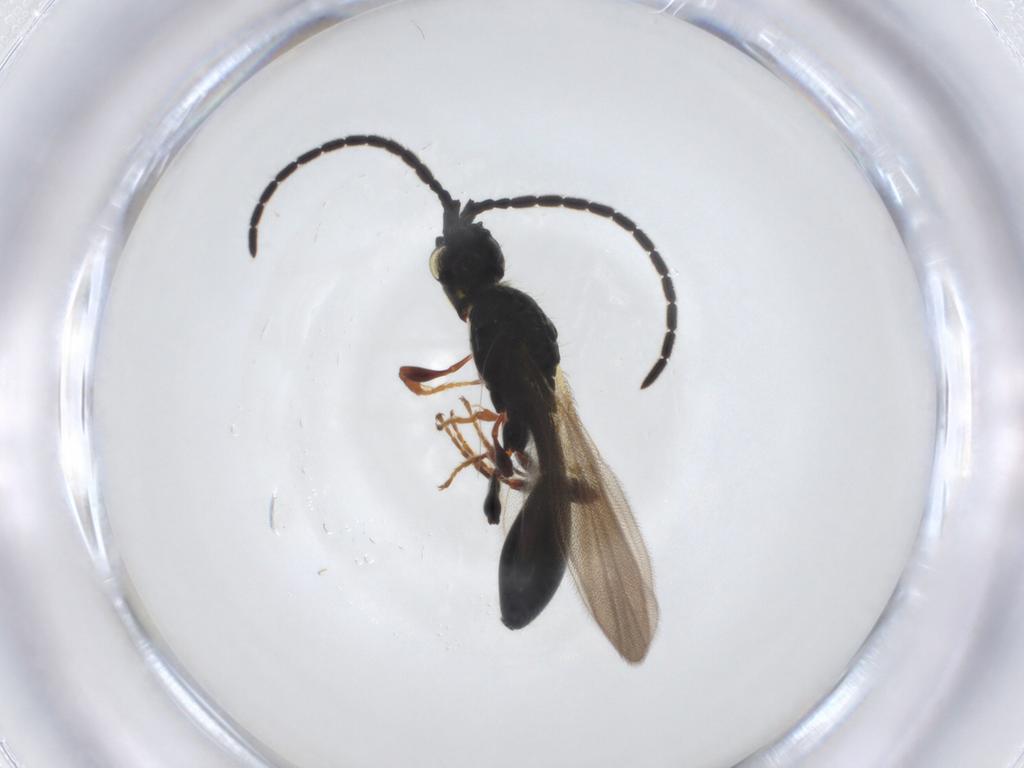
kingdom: Animalia
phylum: Arthropoda
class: Insecta
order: Hymenoptera
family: Diapriidae
